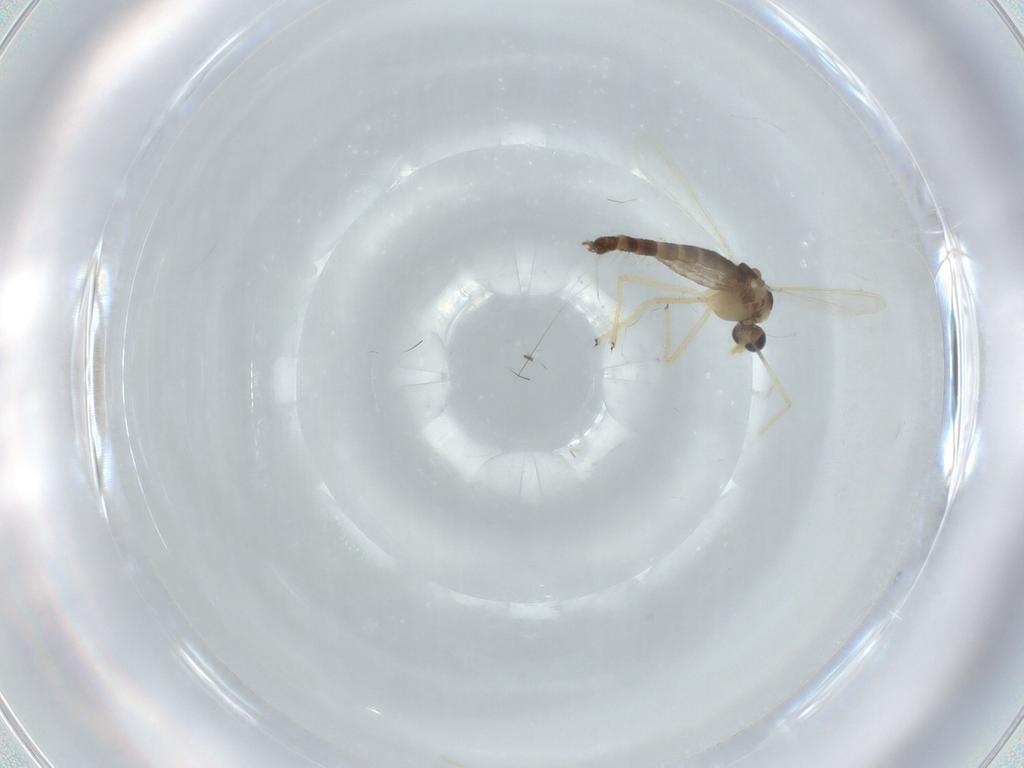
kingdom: Animalia
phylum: Arthropoda
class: Insecta
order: Diptera
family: Chironomidae
